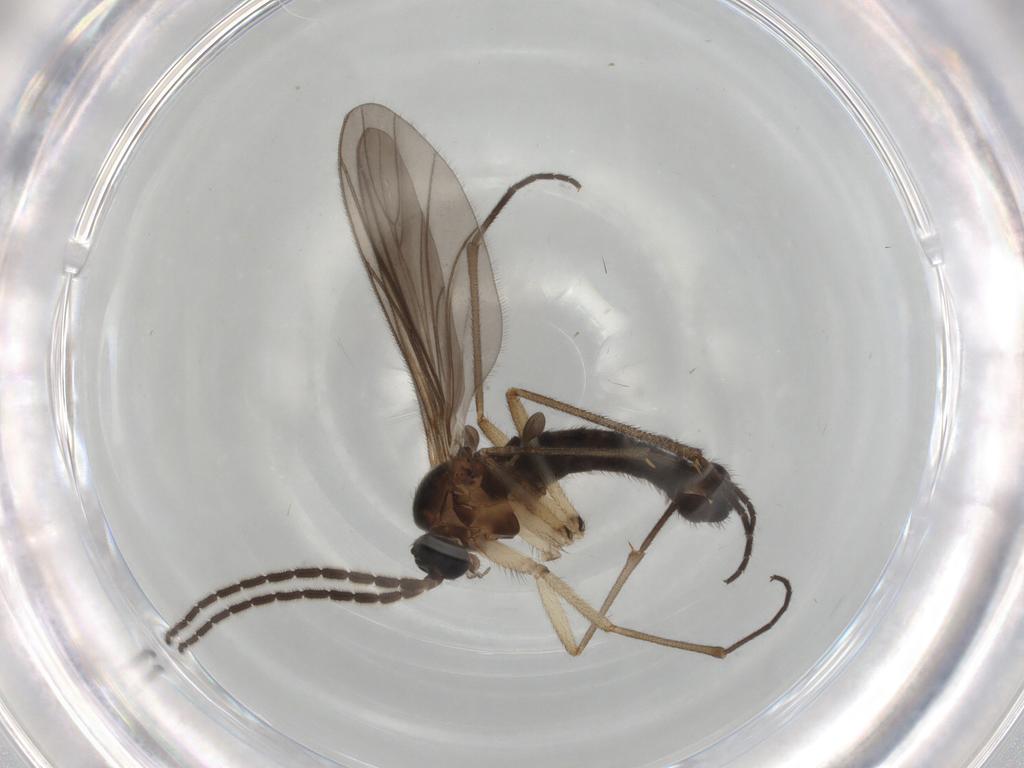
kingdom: Animalia
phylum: Arthropoda
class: Insecta
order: Diptera
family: Sciaridae
